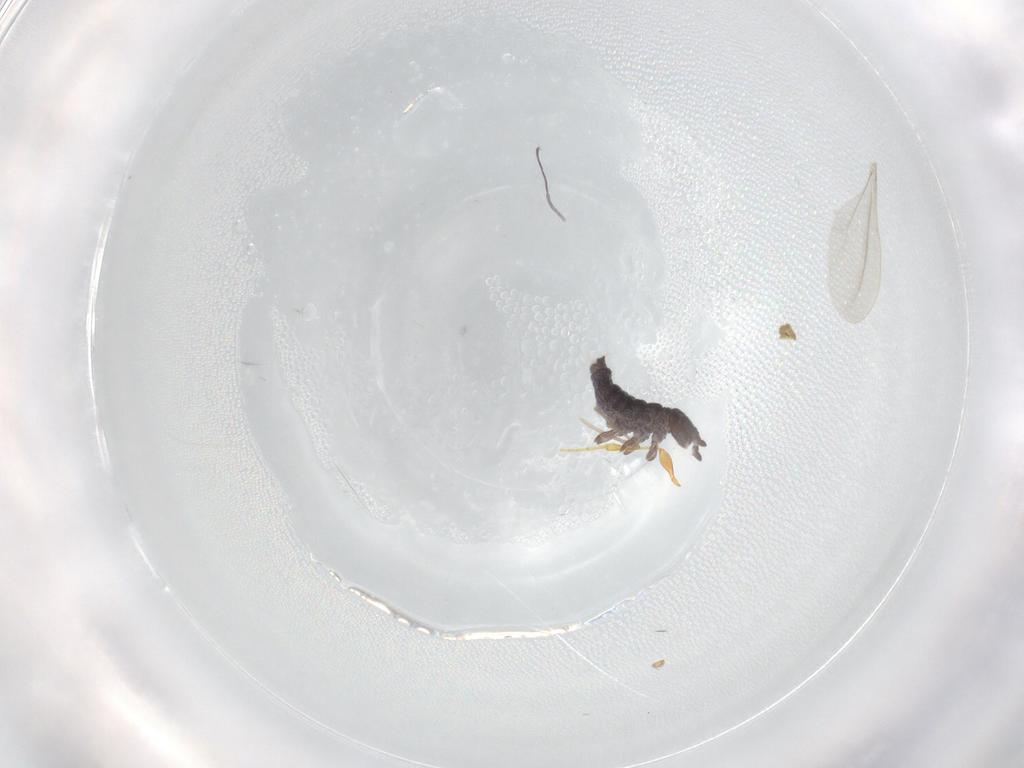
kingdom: Animalia
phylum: Arthropoda
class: Collembola
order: Poduromorpha
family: Hypogastruridae
